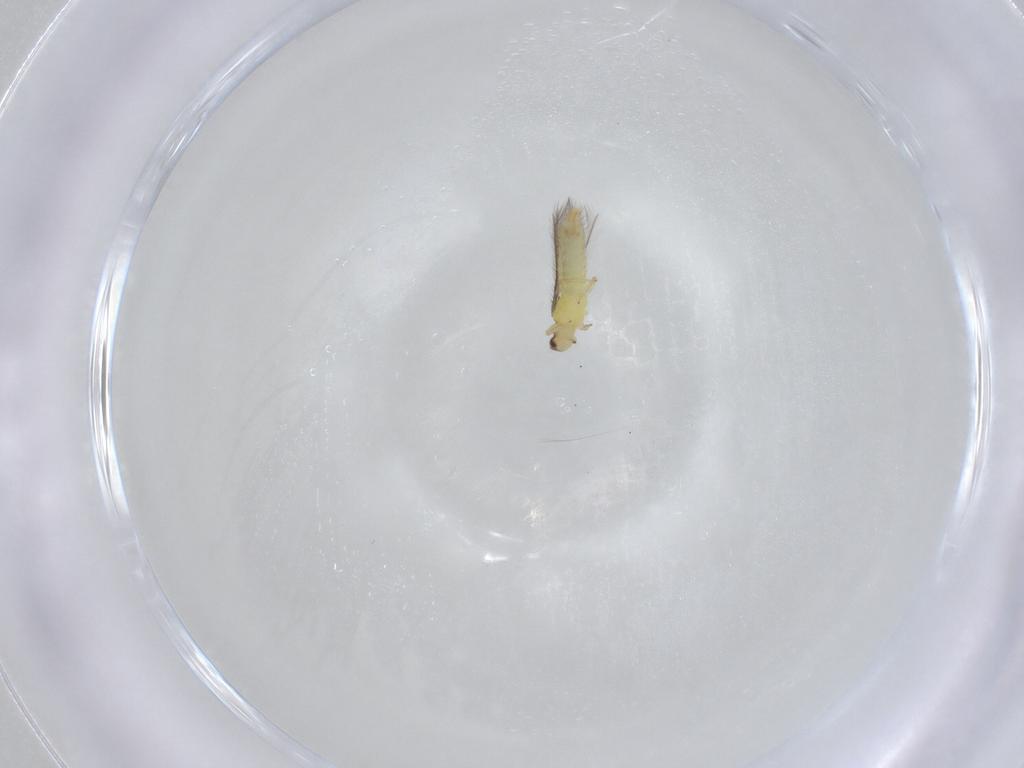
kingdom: Animalia
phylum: Arthropoda
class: Insecta
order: Thysanoptera
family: Thripidae
